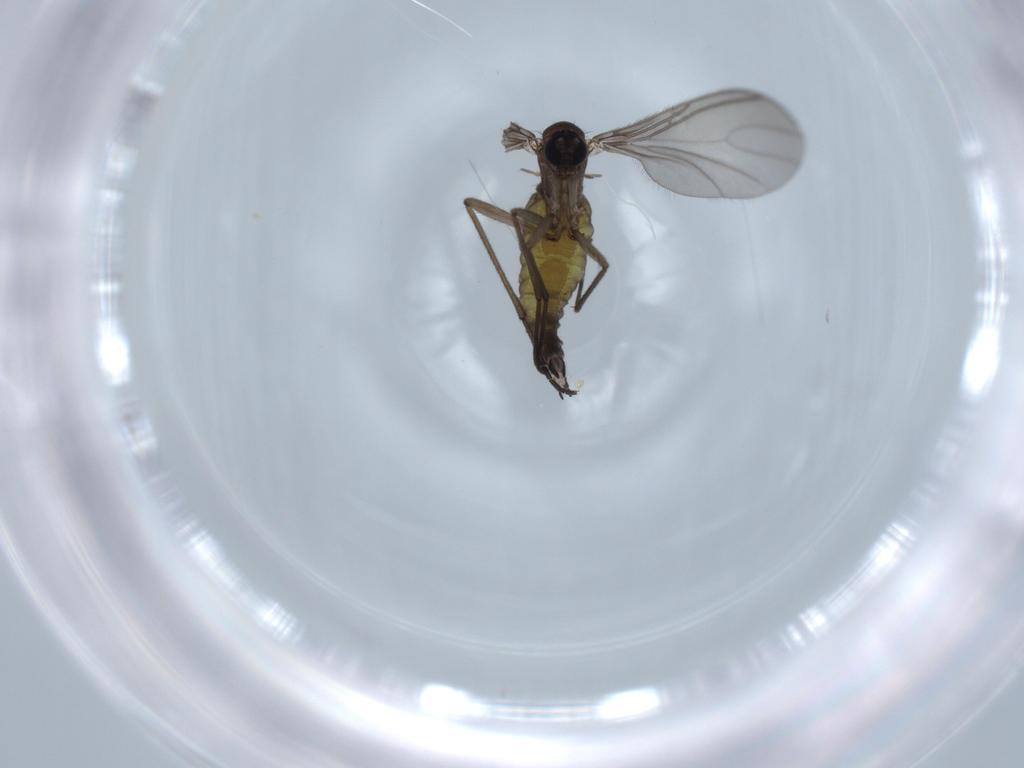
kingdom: Animalia
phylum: Arthropoda
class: Insecta
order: Diptera
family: Sciaridae
